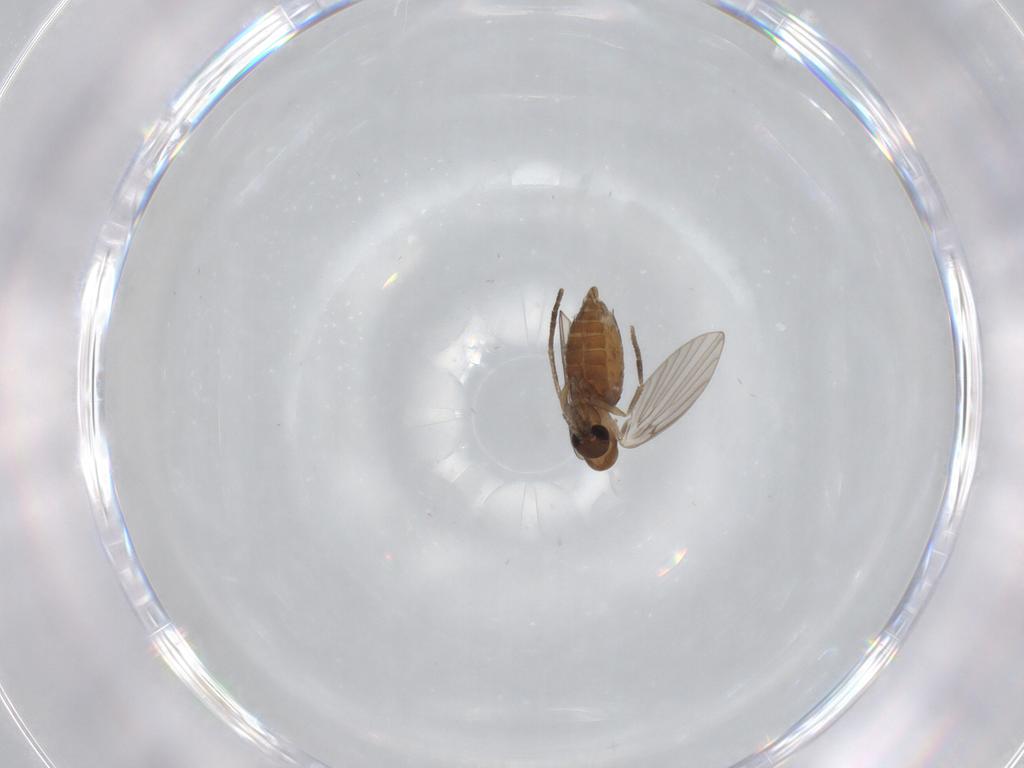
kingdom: Animalia
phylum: Arthropoda
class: Insecta
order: Diptera
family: Cecidomyiidae
